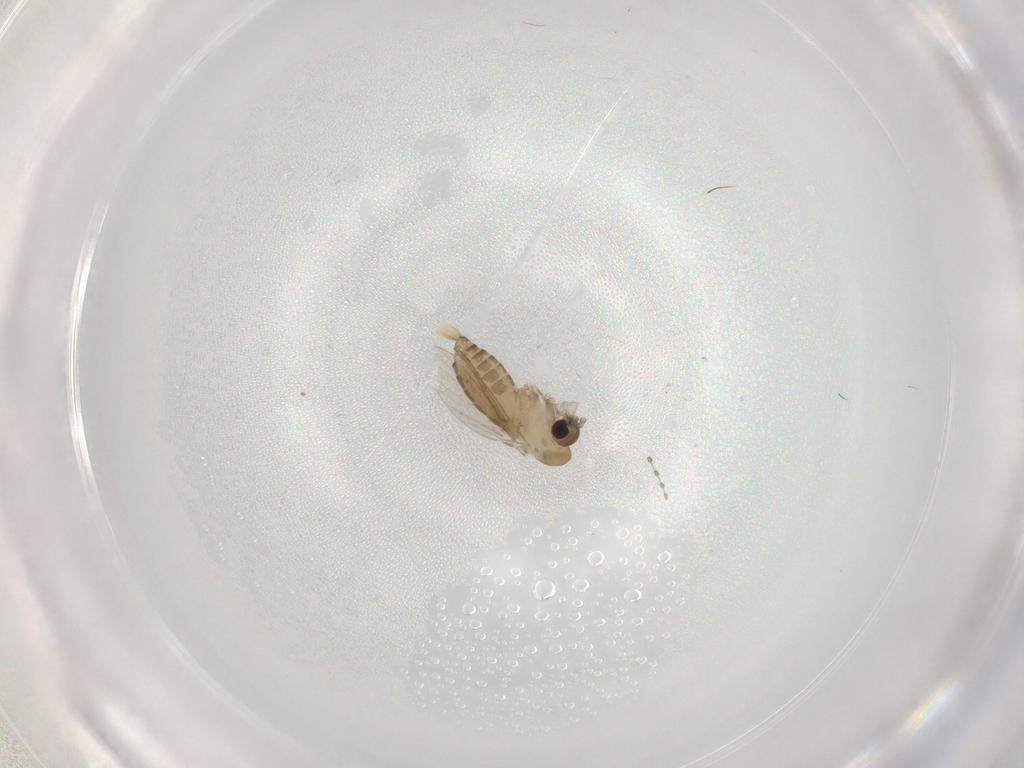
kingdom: Animalia
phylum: Arthropoda
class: Insecta
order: Diptera
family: Psychodidae
